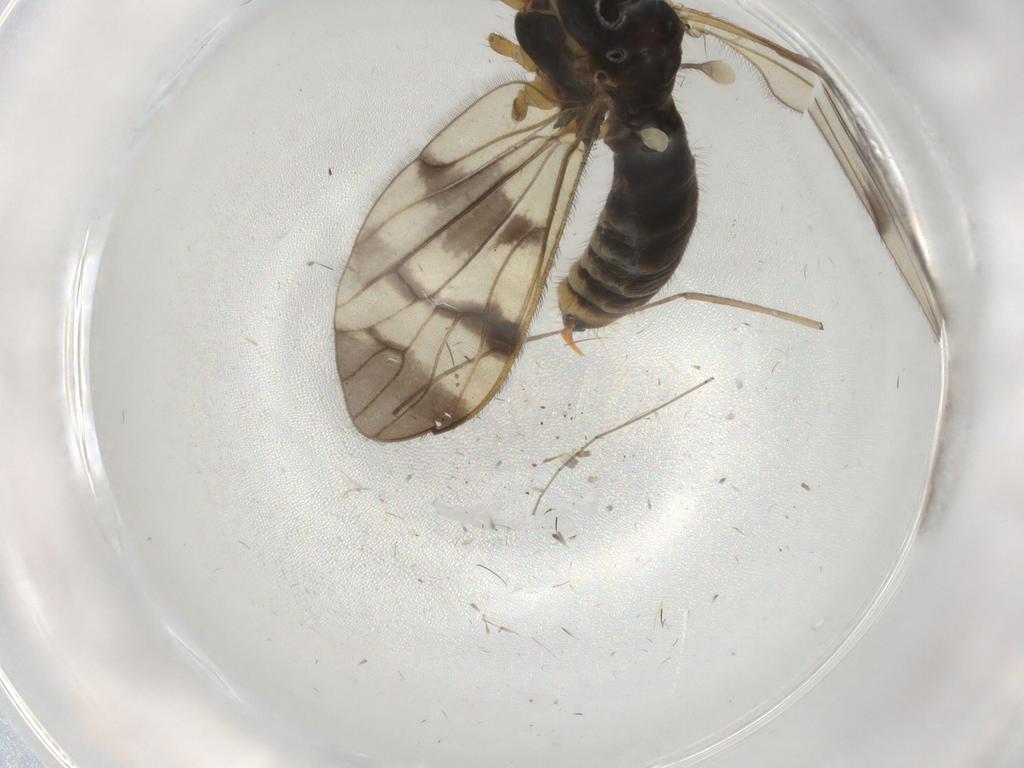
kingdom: Animalia
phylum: Arthropoda
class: Insecta
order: Diptera
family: Limoniidae
